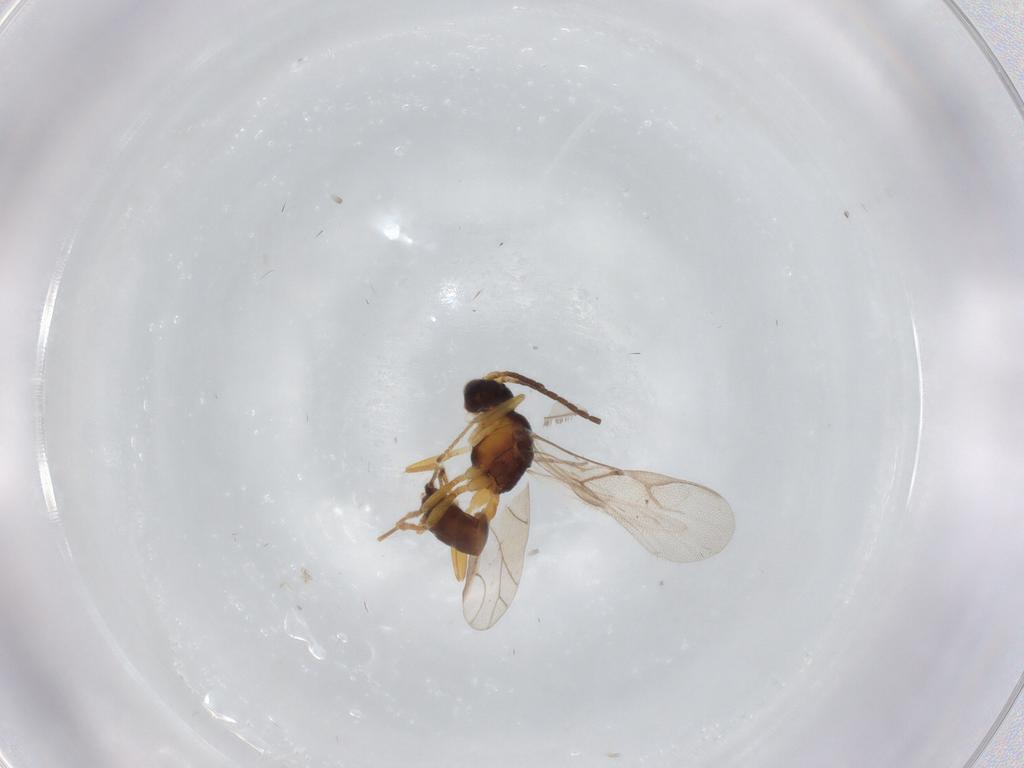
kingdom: Animalia
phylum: Arthropoda
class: Insecta
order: Hymenoptera
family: Braconidae
